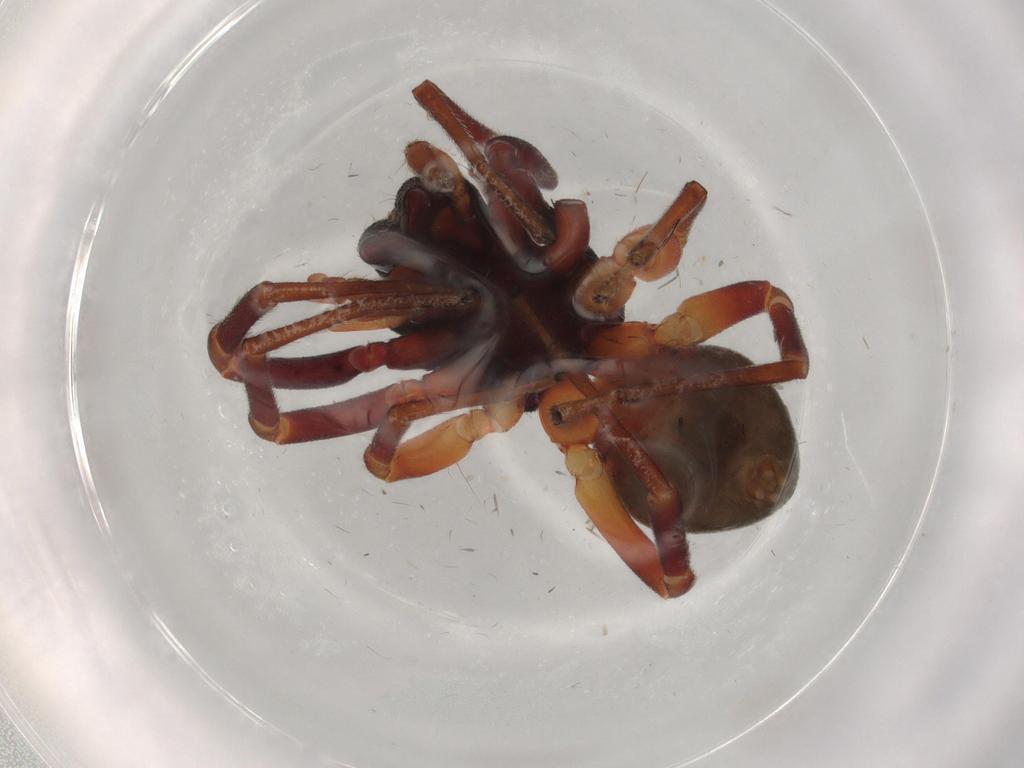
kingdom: Animalia
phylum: Arthropoda
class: Arachnida
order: Araneae
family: Trachelidae
